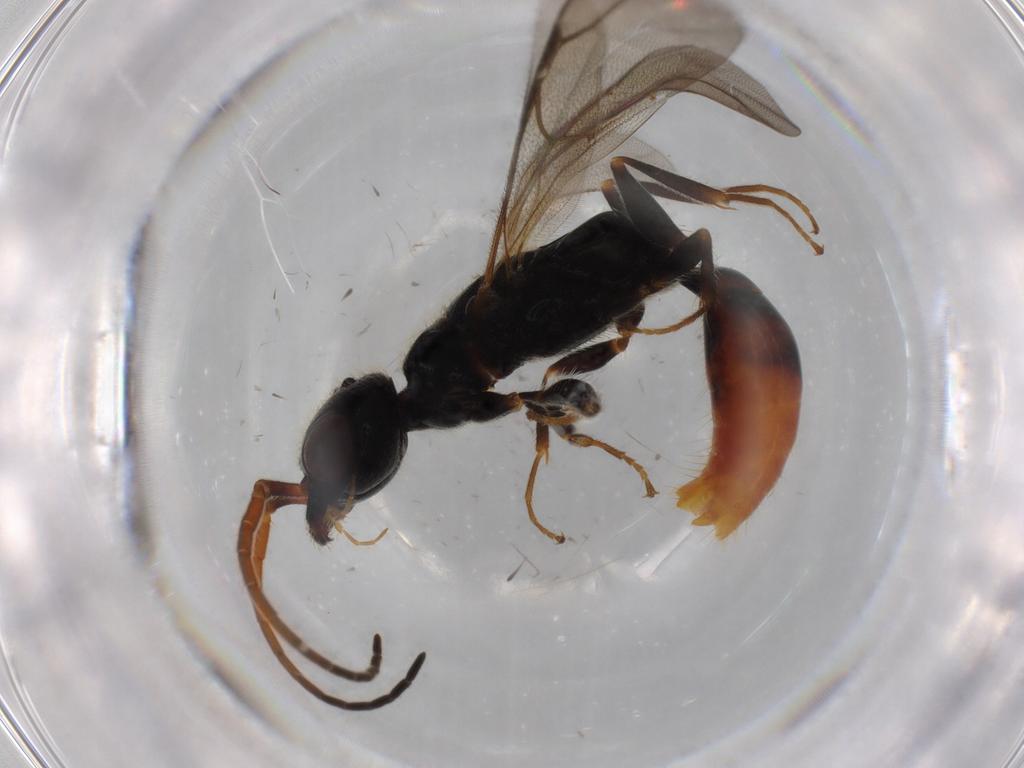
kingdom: Animalia
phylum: Arthropoda
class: Insecta
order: Hymenoptera
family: Bethylidae
